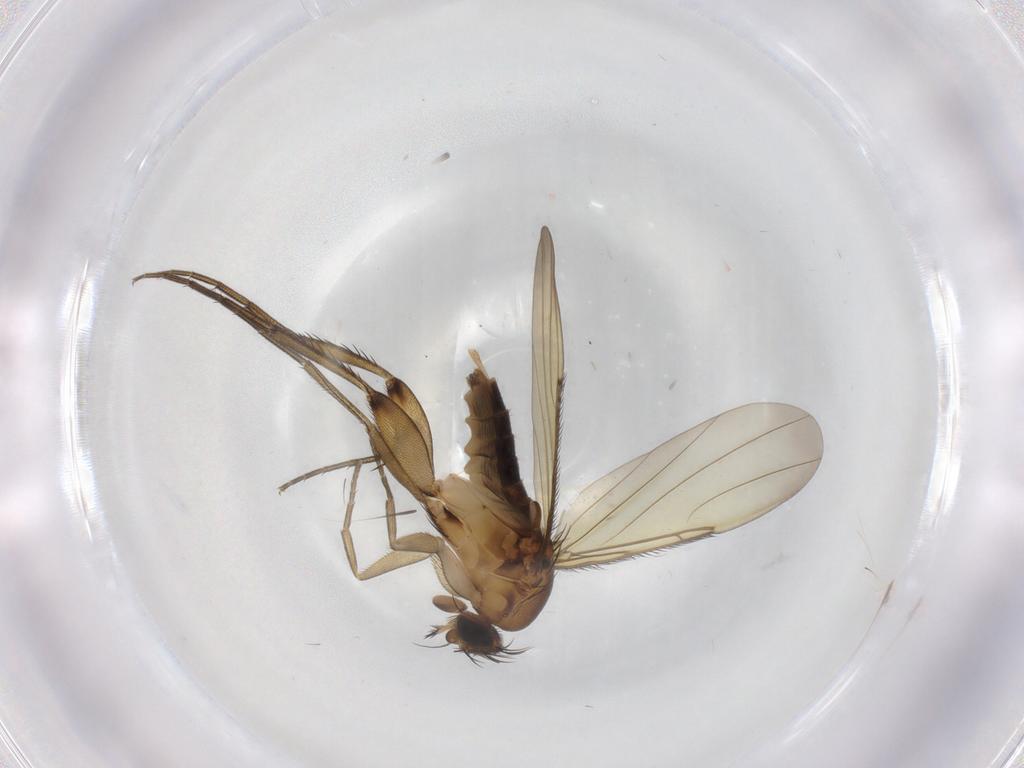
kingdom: Animalia
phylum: Arthropoda
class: Insecta
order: Diptera
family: Phoridae
